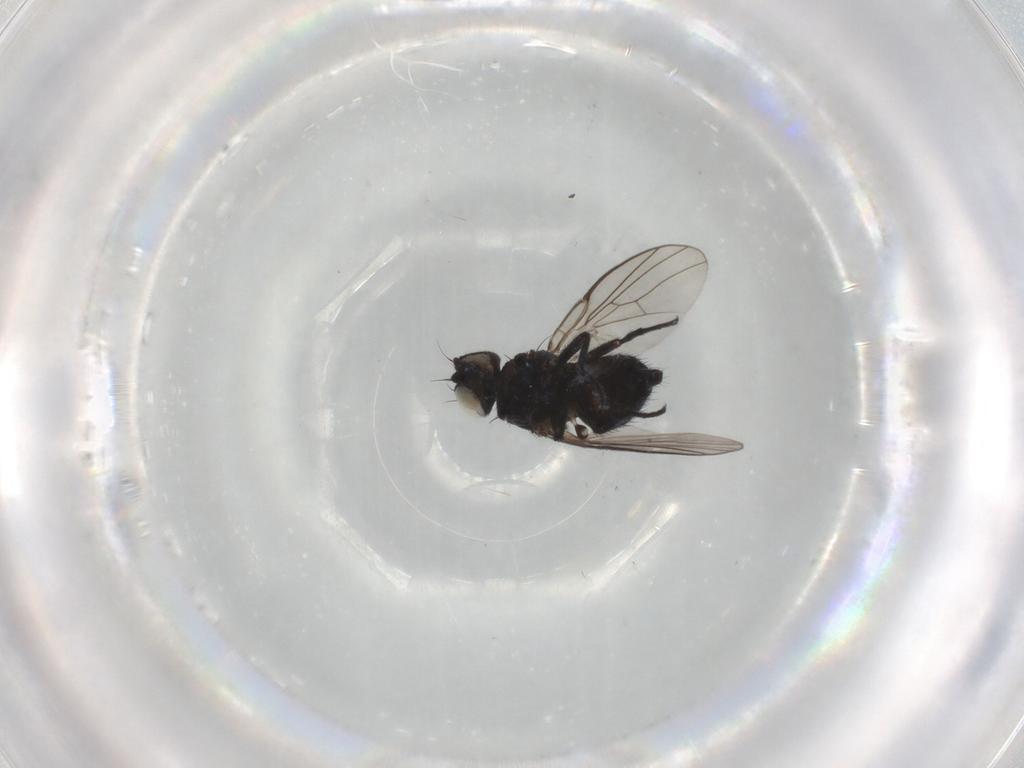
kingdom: Animalia
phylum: Arthropoda
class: Insecta
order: Diptera
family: Agromyzidae
